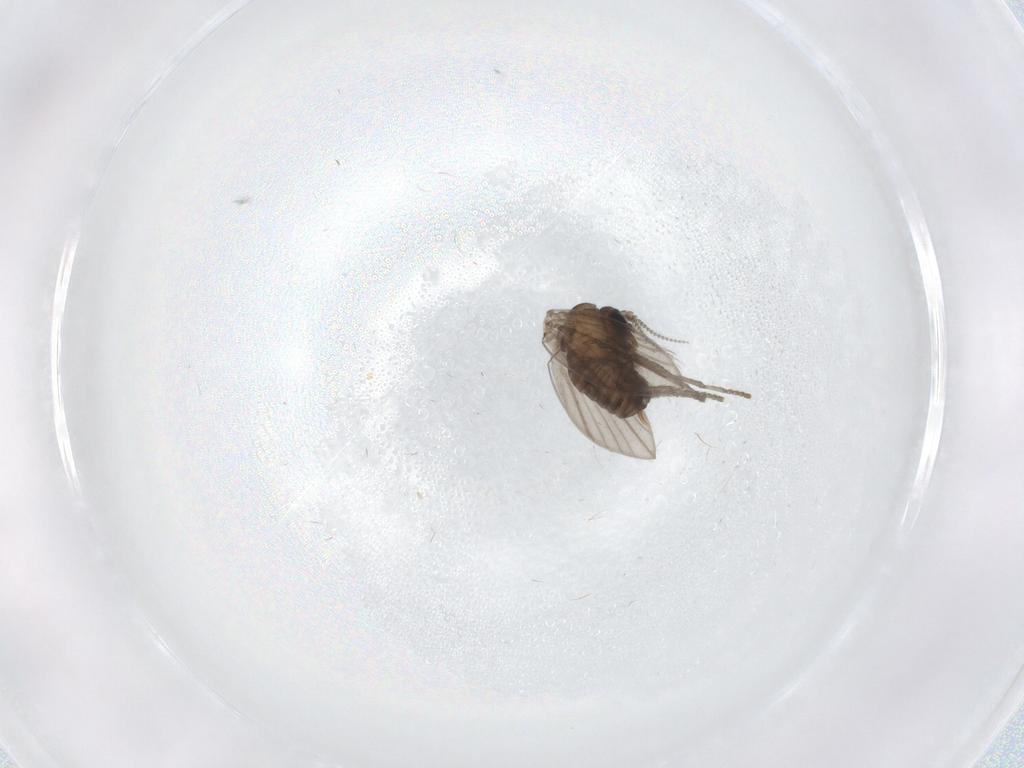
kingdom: Animalia
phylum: Arthropoda
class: Insecta
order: Diptera
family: Psychodidae
